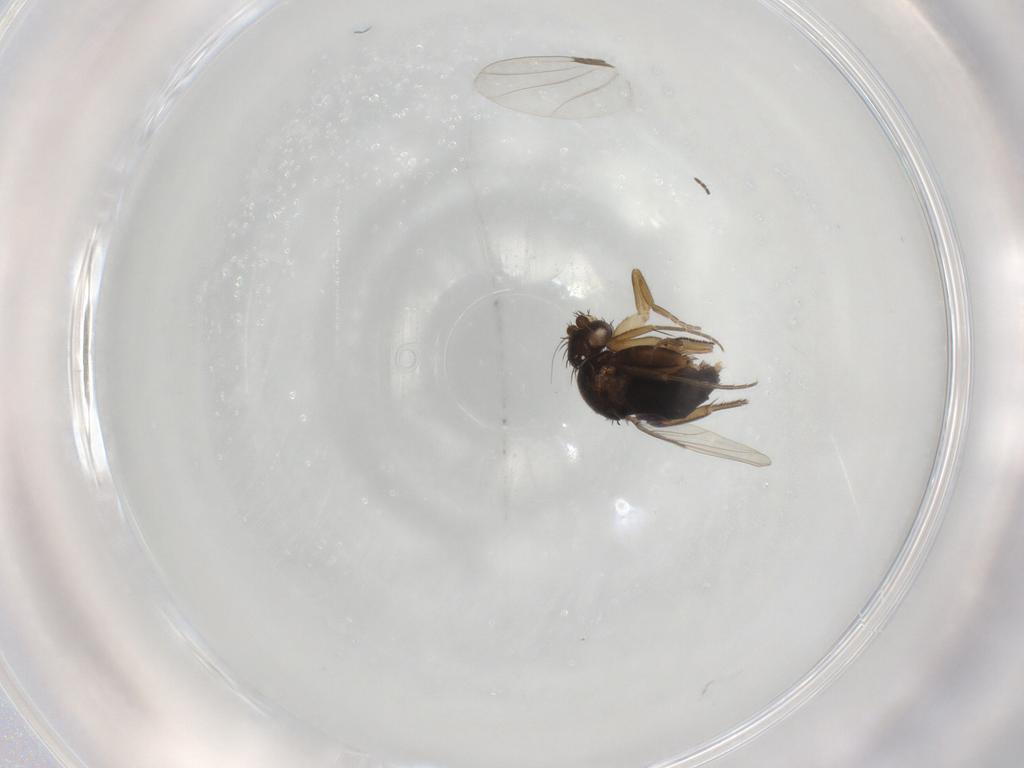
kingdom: Animalia
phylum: Arthropoda
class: Insecta
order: Diptera
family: Phoridae
